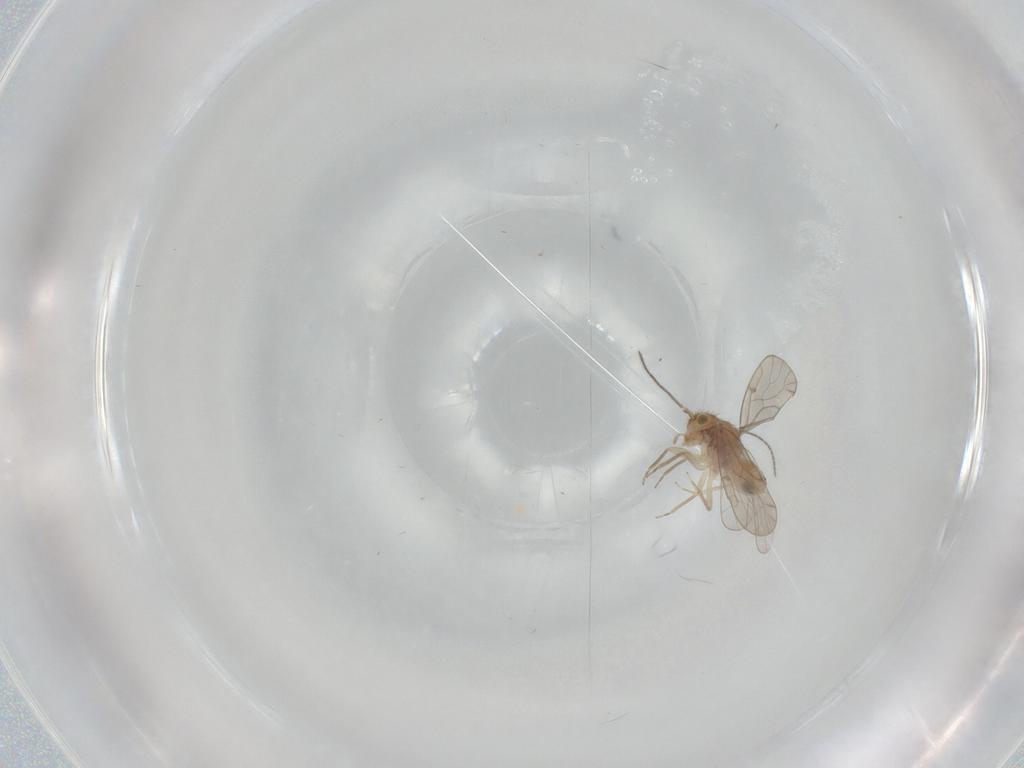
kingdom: Animalia
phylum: Arthropoda
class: Insecta
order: Psocodea
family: Ectopsocidae
